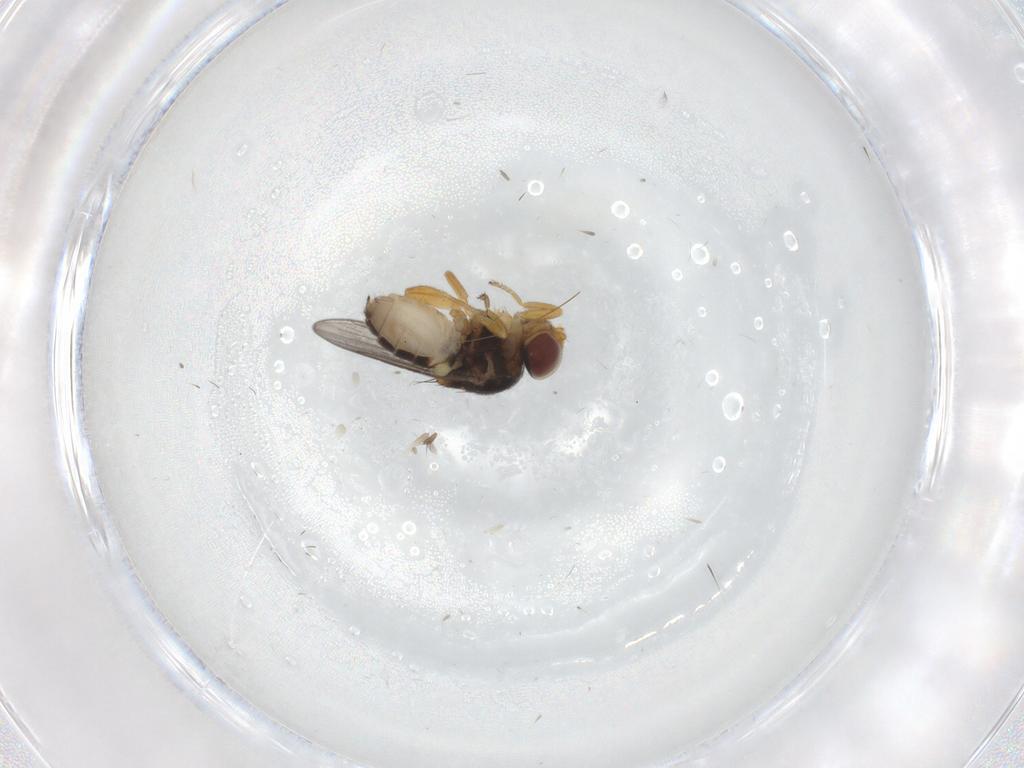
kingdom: Animalia
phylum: Arthropoda
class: Insecta
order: Diptera
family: Chloropidae
